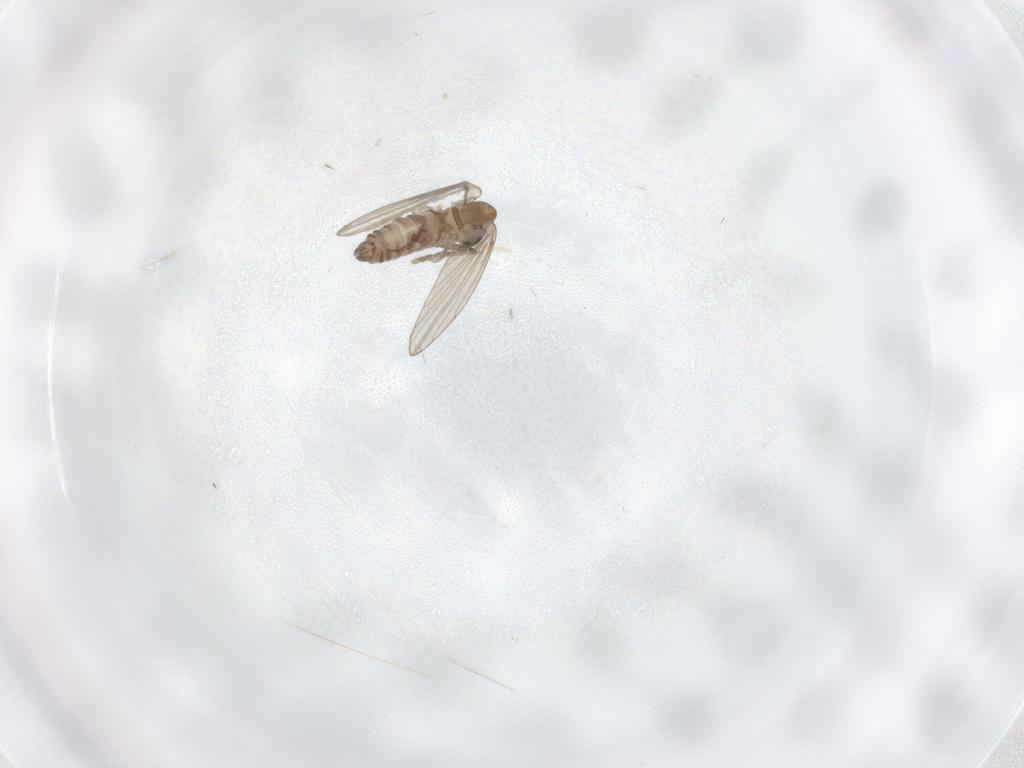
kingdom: Animalia
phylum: Arthropoda
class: Insecta
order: Diptera
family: Psychodidae
